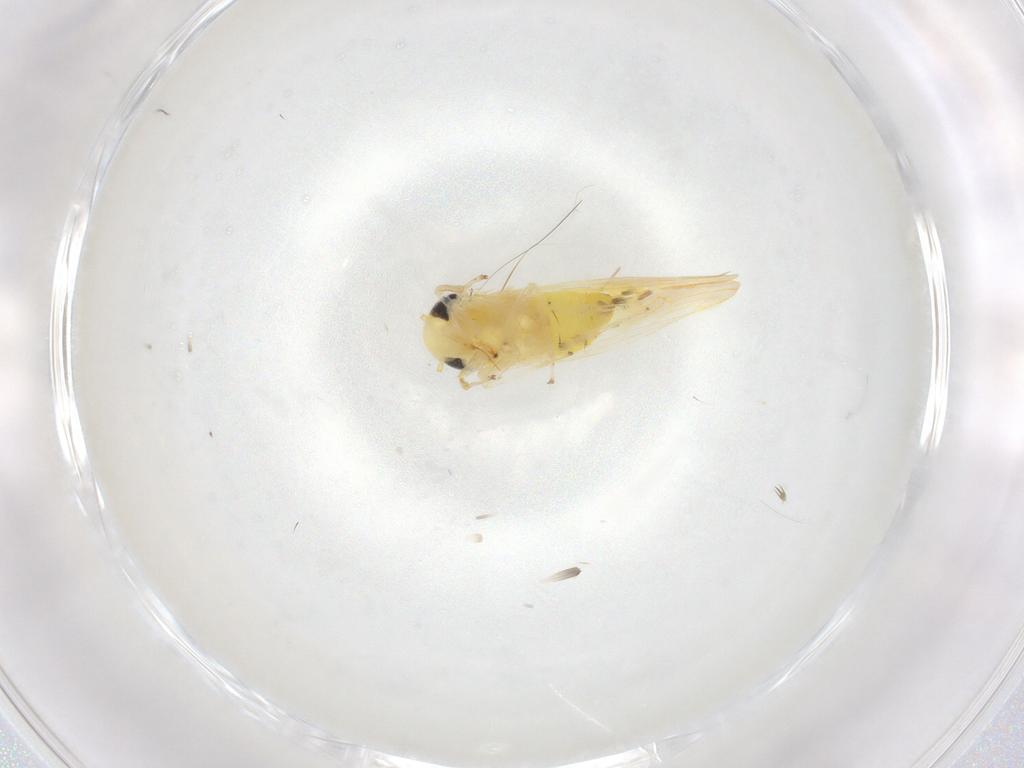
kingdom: Animalia
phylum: Arthropoda
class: Insecta
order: Hemiptera
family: Cicadellidae
